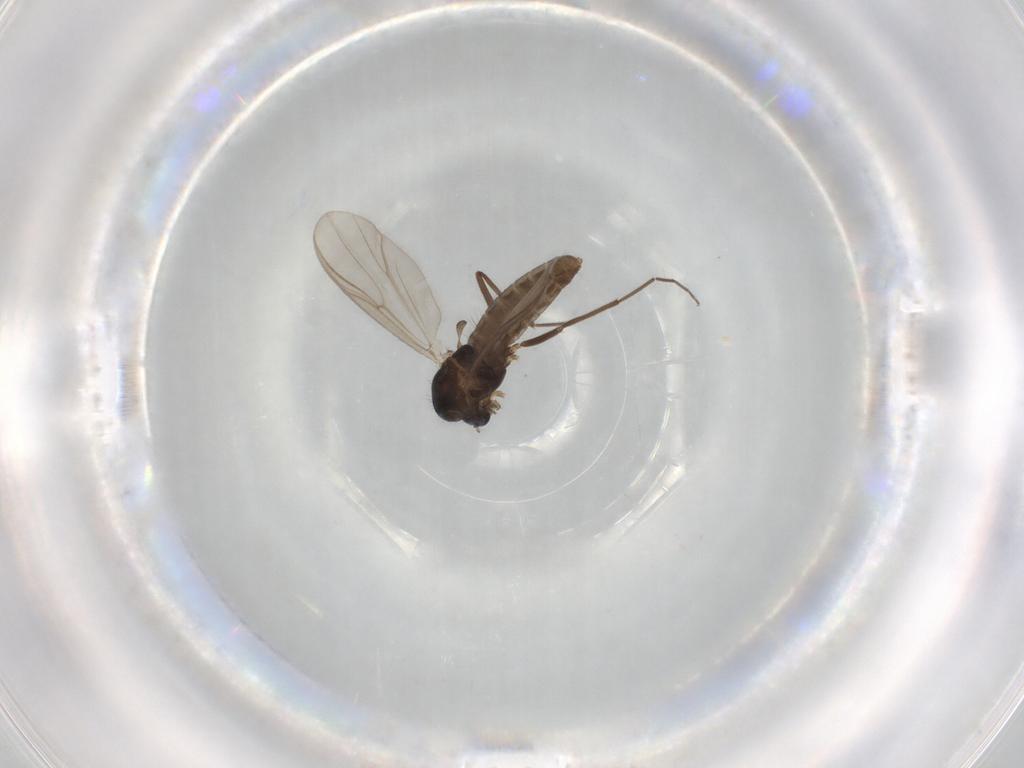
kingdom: Animalia
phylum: Arthropoda
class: Insecta
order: Diptera
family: Chironomidae
